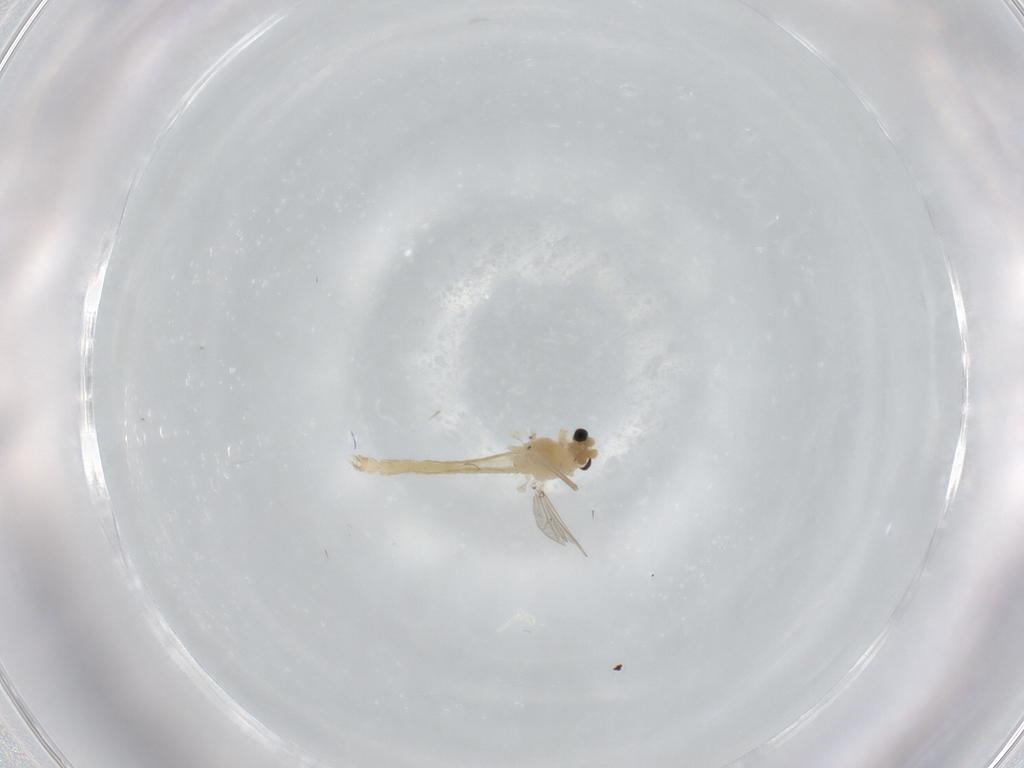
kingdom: Animalia
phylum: Arthropoda
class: Insecta
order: Diptera
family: Chironomidae
